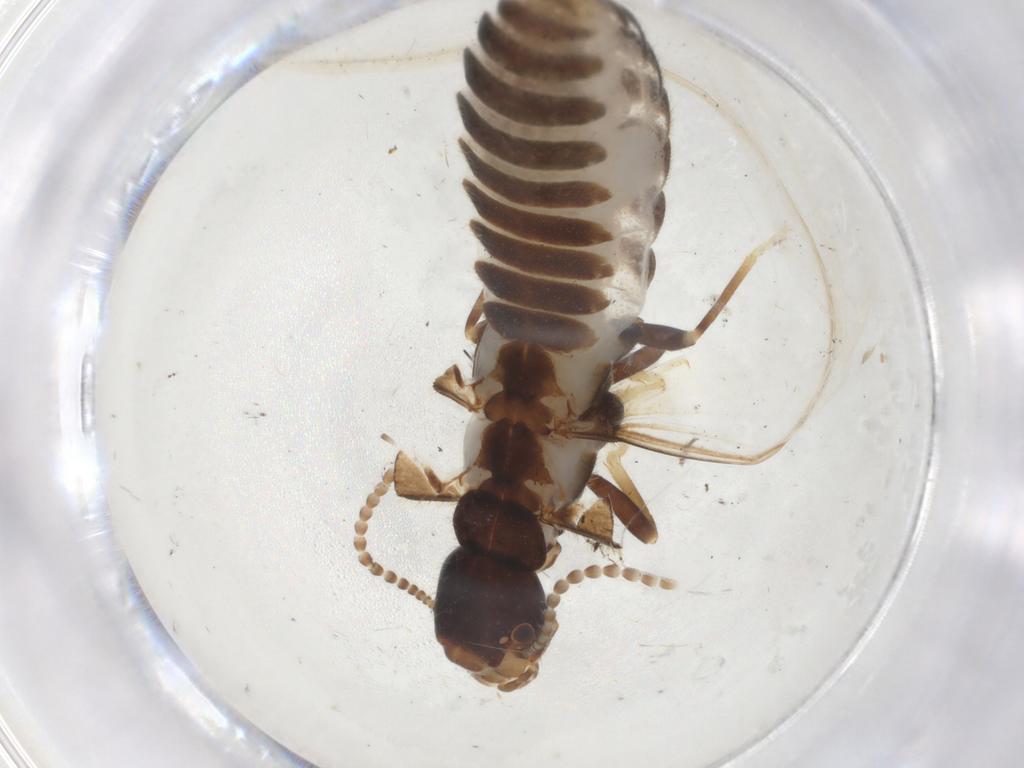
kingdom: Animalia
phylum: Arthropoda
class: Insecta
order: Blattodea
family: Rhinotermitidae
